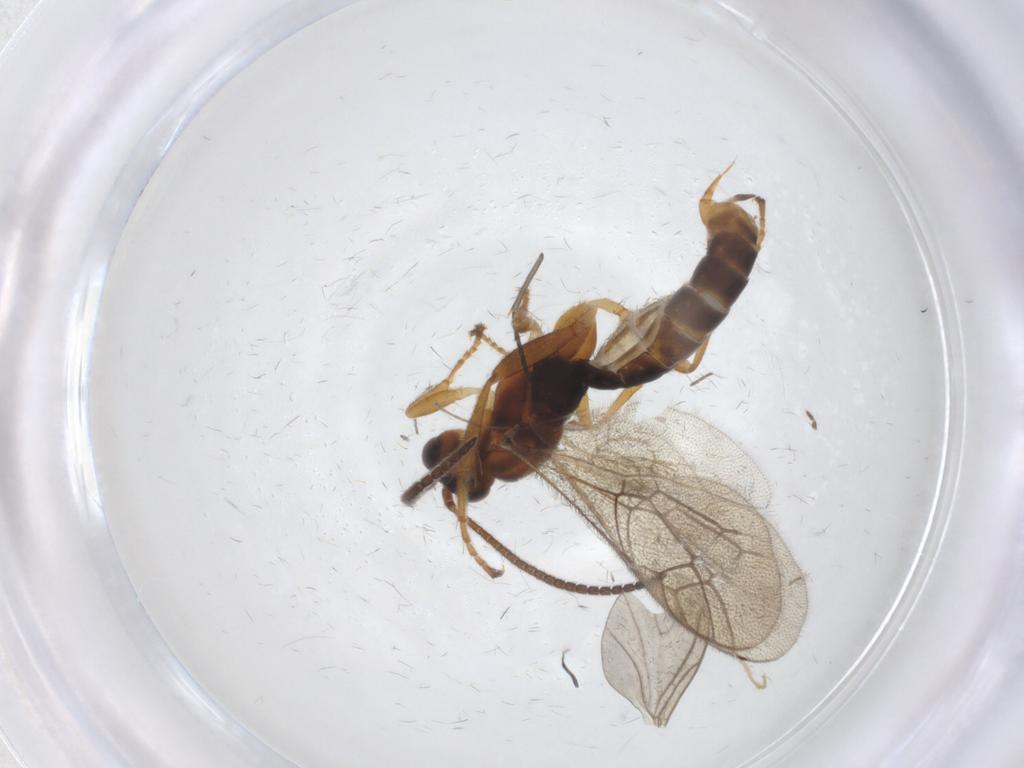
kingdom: Animalia
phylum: Arthropoda
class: Insecta
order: Hymenoptera
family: Ichneumonidae
